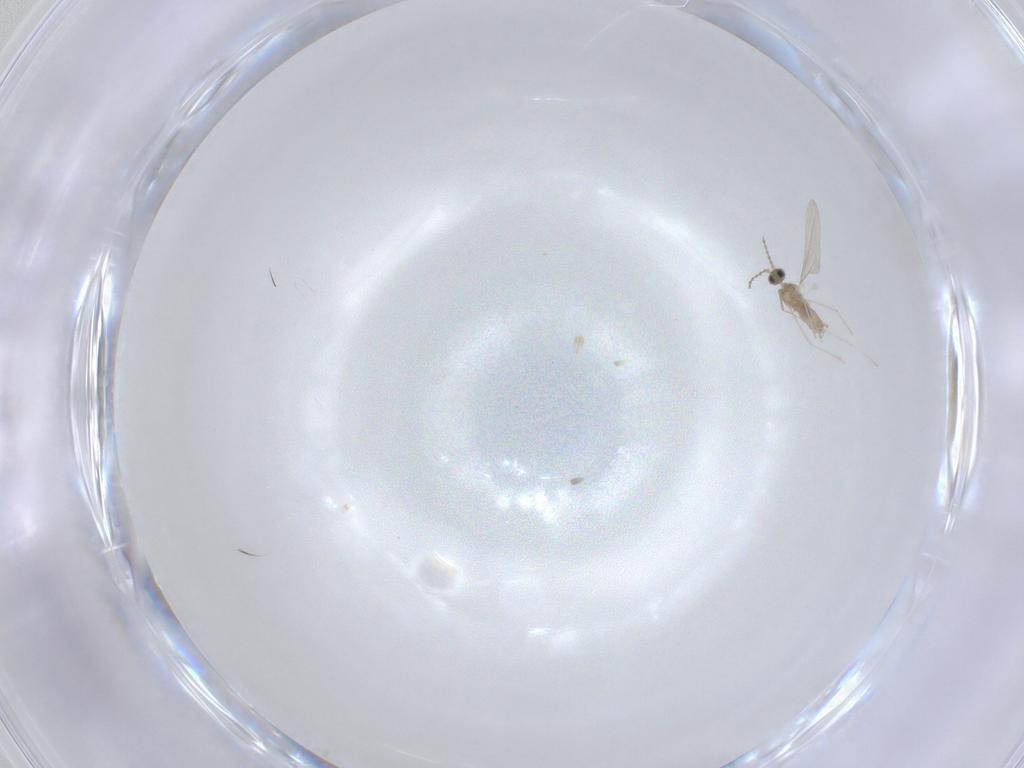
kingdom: Animalia
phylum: Arthropoda
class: Insecta
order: Diptera
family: Cecidomyiidae
